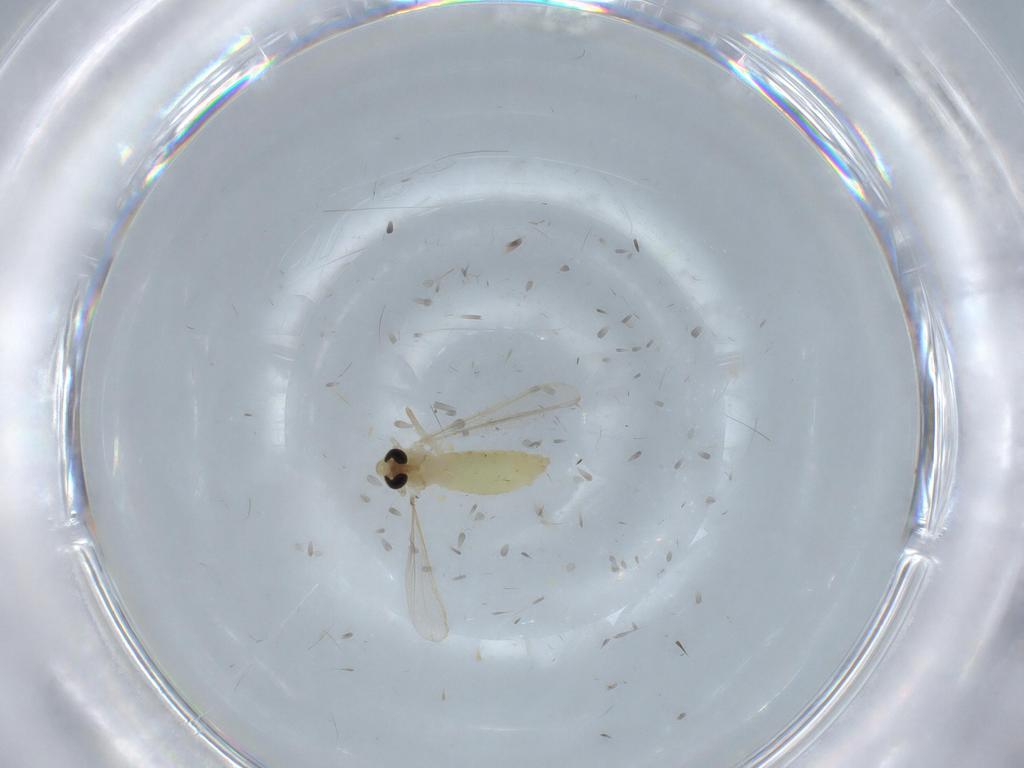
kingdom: Animalia
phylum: Arthropoda
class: Insecta
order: Diptera
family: Chironomidae
